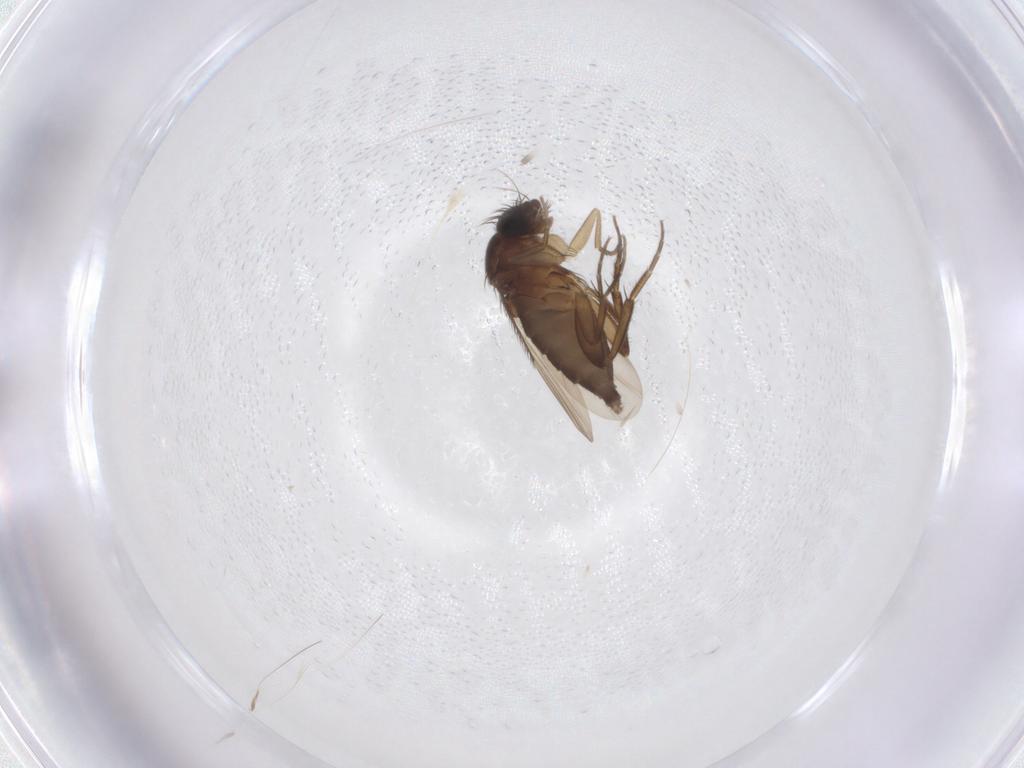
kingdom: Animalia
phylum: Arthropoda
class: Insecta
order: Diptera
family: Phoridae
